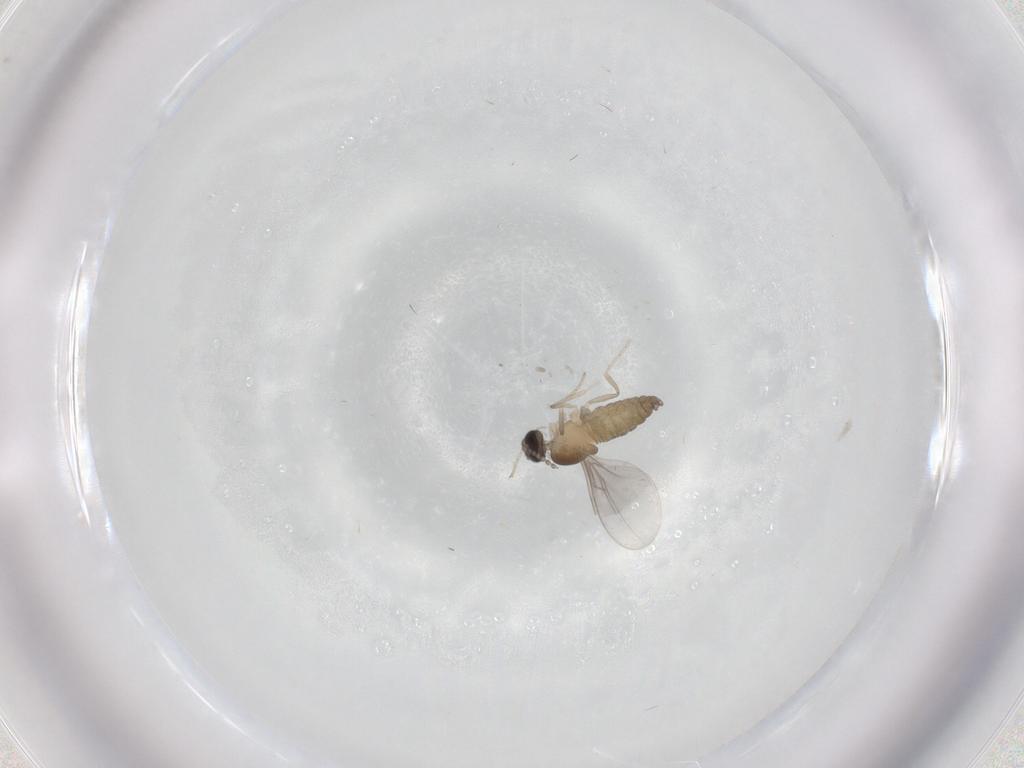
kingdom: Animalia
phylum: Arthropoda
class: Insecta
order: Diptera
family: Cecidomyiidae
